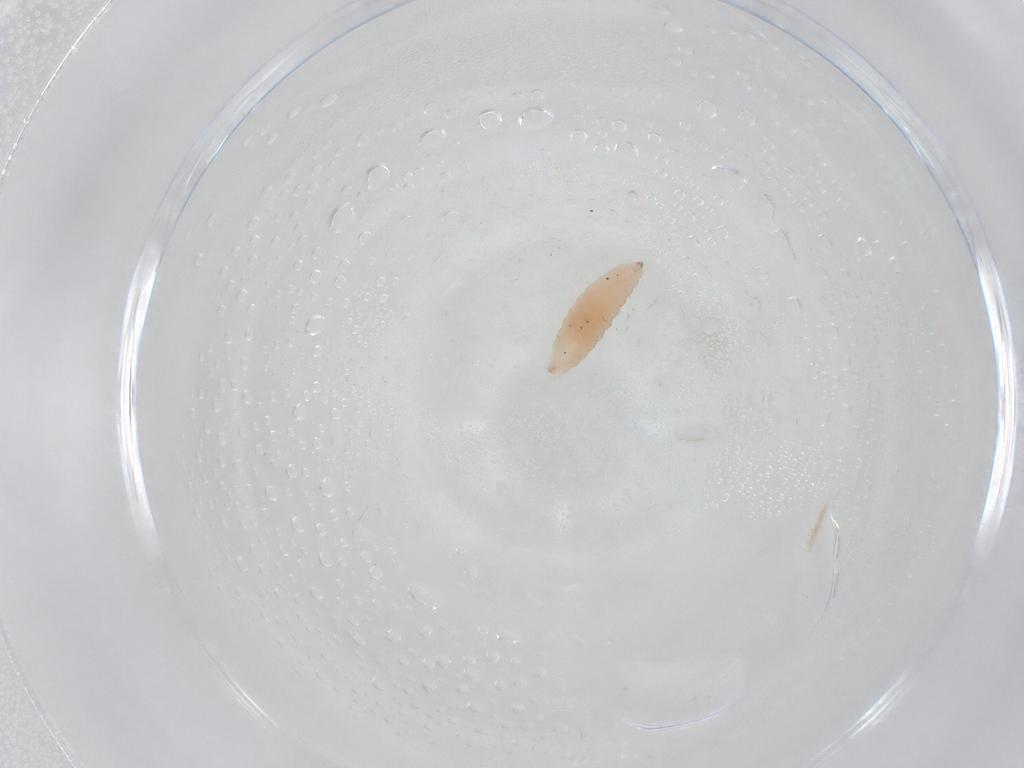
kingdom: Animalia
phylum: Arthropoda
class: Insecta
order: Diptera
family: Cecidomyiidae
